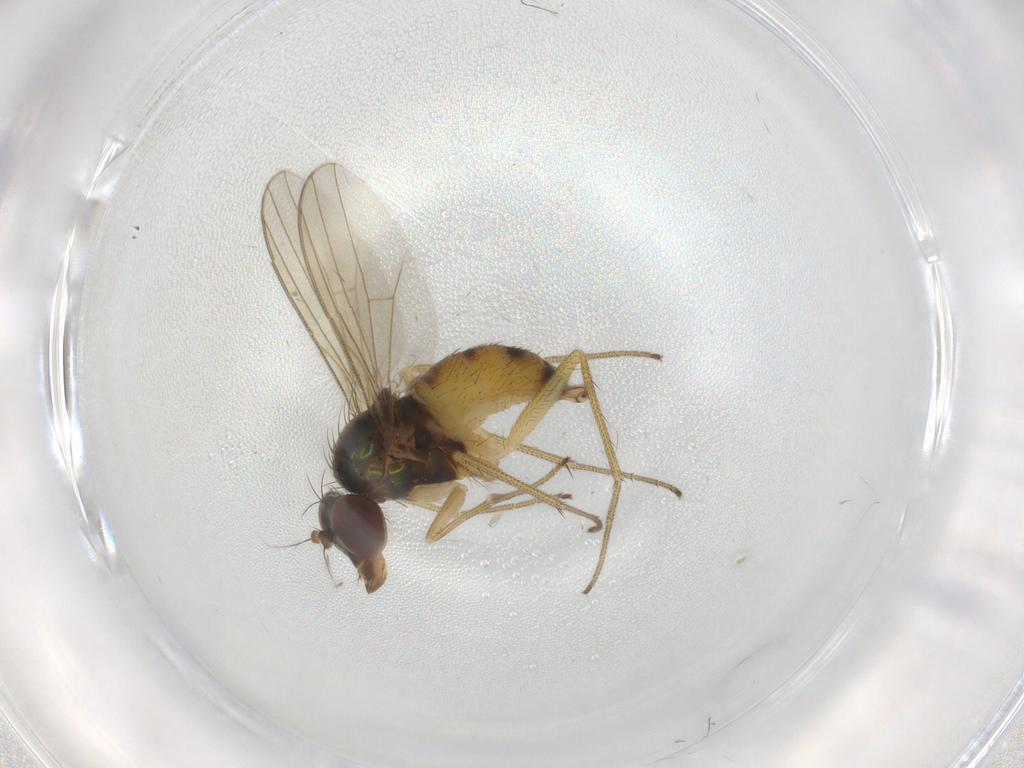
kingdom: Animalia
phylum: Arthropoda
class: Insecta
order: Diptera
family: Dolichopodidae
